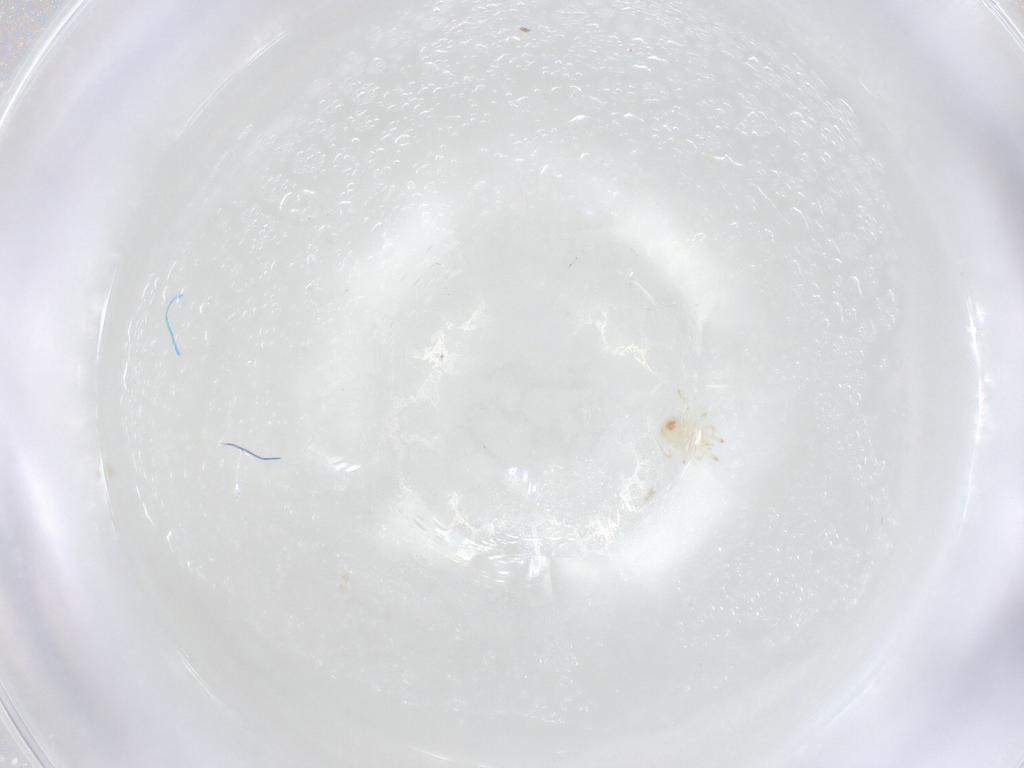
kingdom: Animalia
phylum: Arthropoda
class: Arachnida
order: Mesostigmata
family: Phytoseiidae
